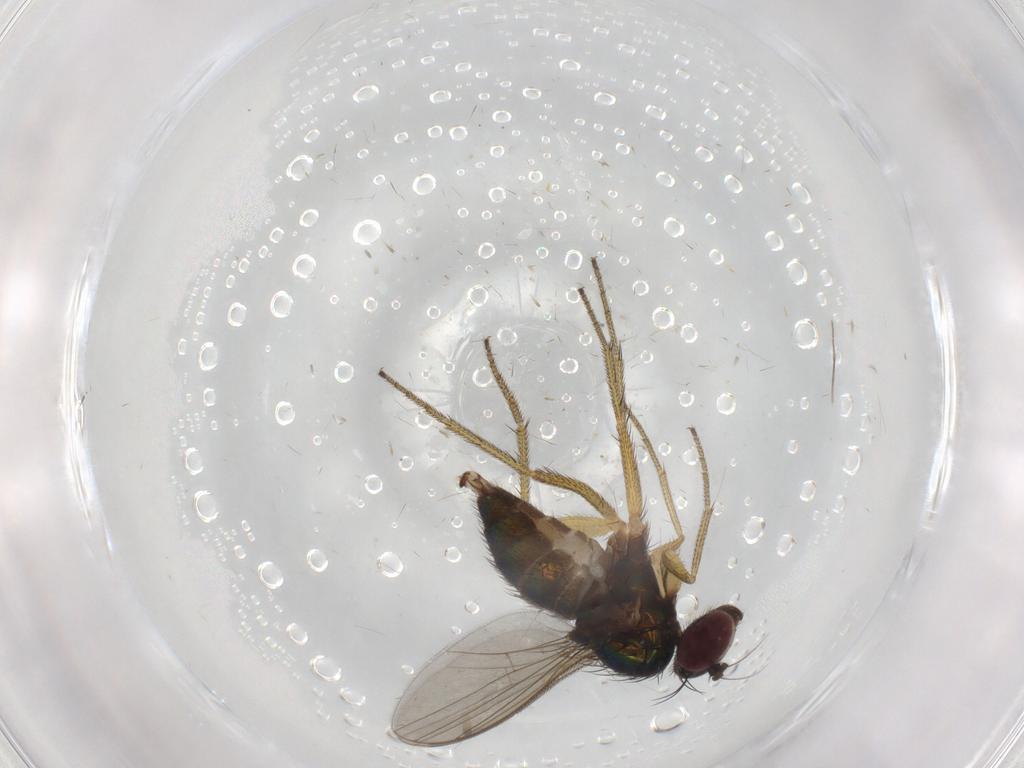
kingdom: Animalia
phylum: Arthropoda
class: Insecta
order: Diptera
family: Dolichopodidae
